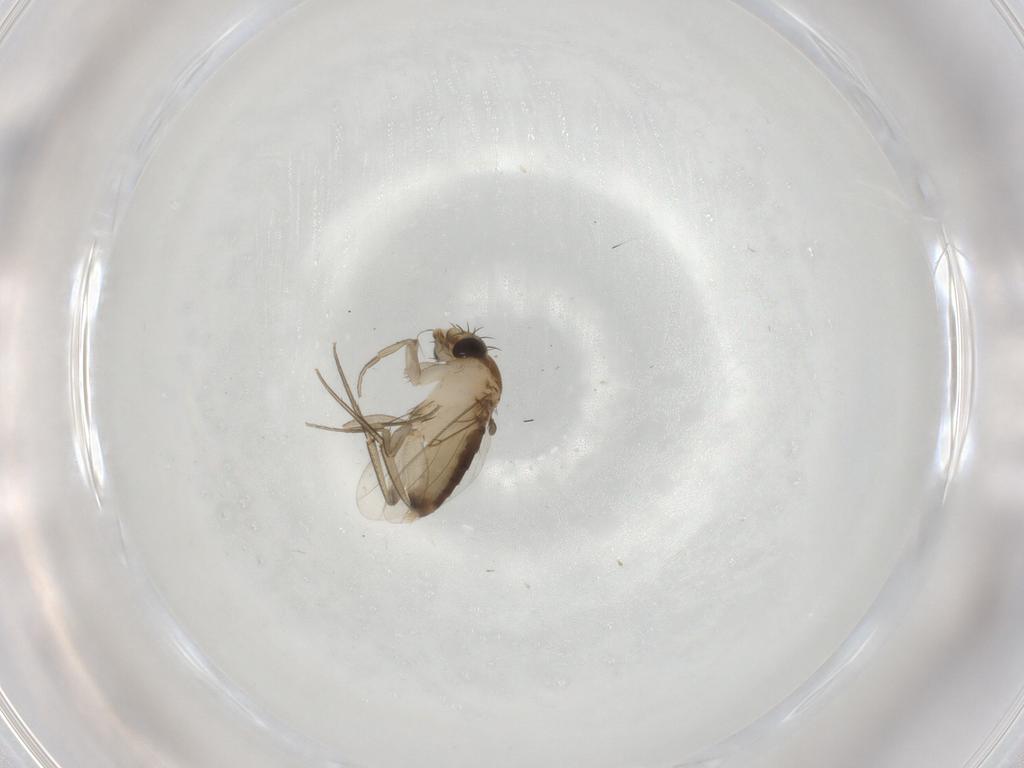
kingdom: Animalia
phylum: Arthropoda
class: Insecta
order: Diptera
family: Phoridae
